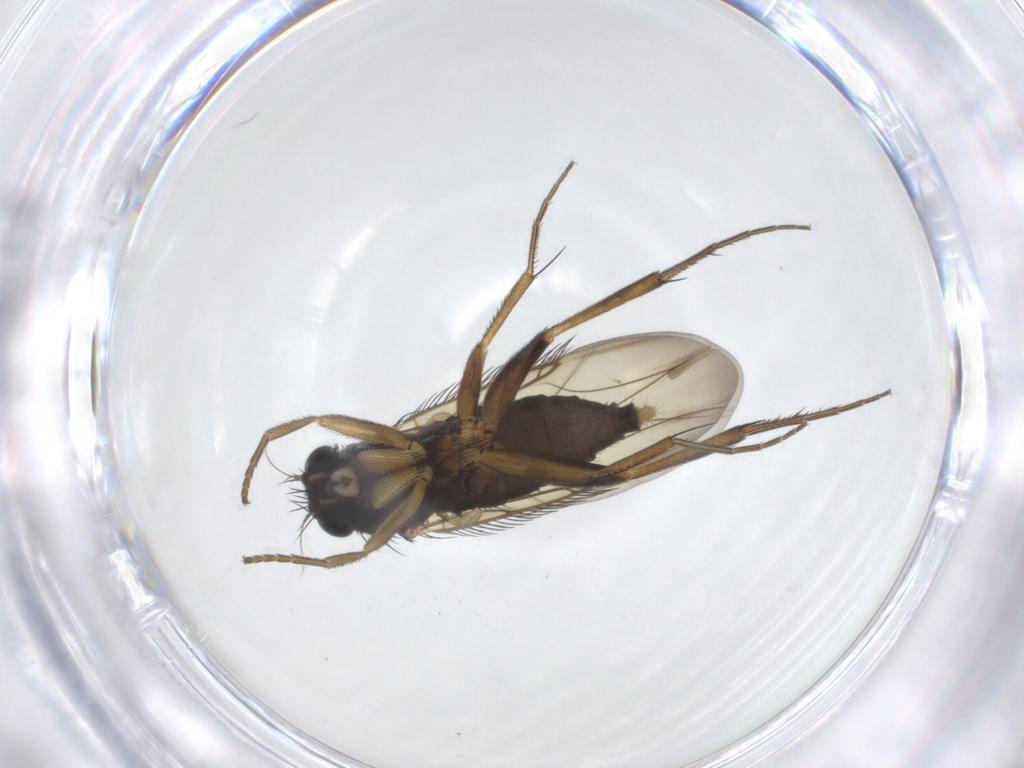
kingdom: Animalia
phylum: Arthropoda
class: Insecta
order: Diptera
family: Phoridae
